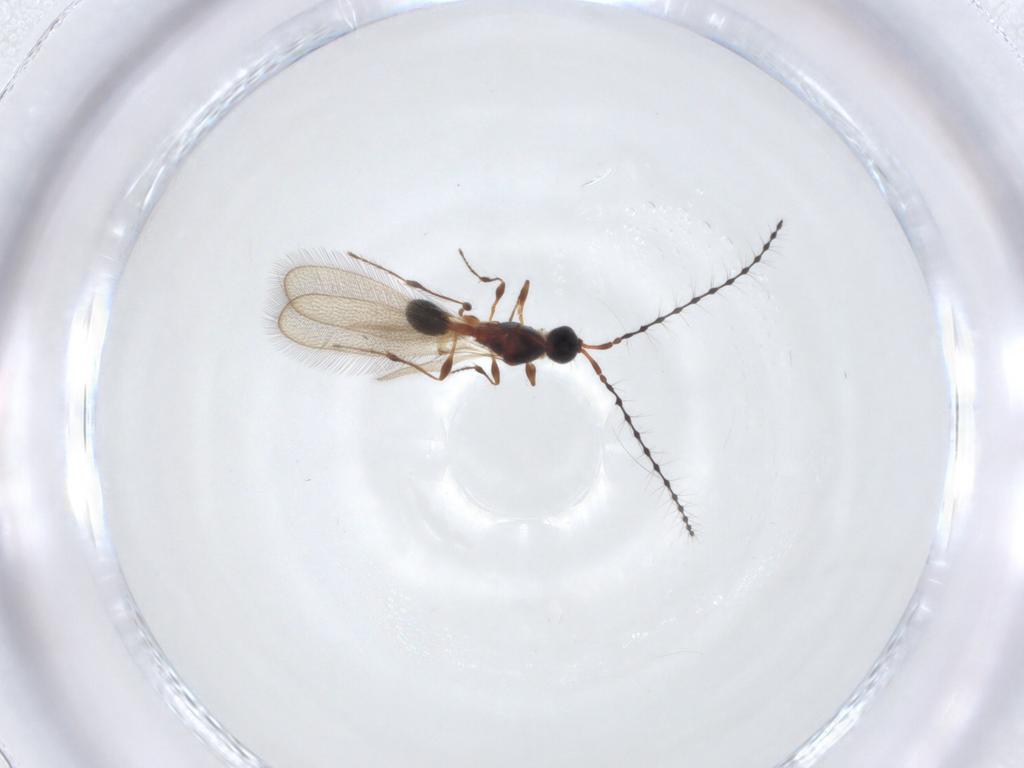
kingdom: Animalia
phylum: Arthropoda
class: Insecta
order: Hymenoptera
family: Diapriidae
